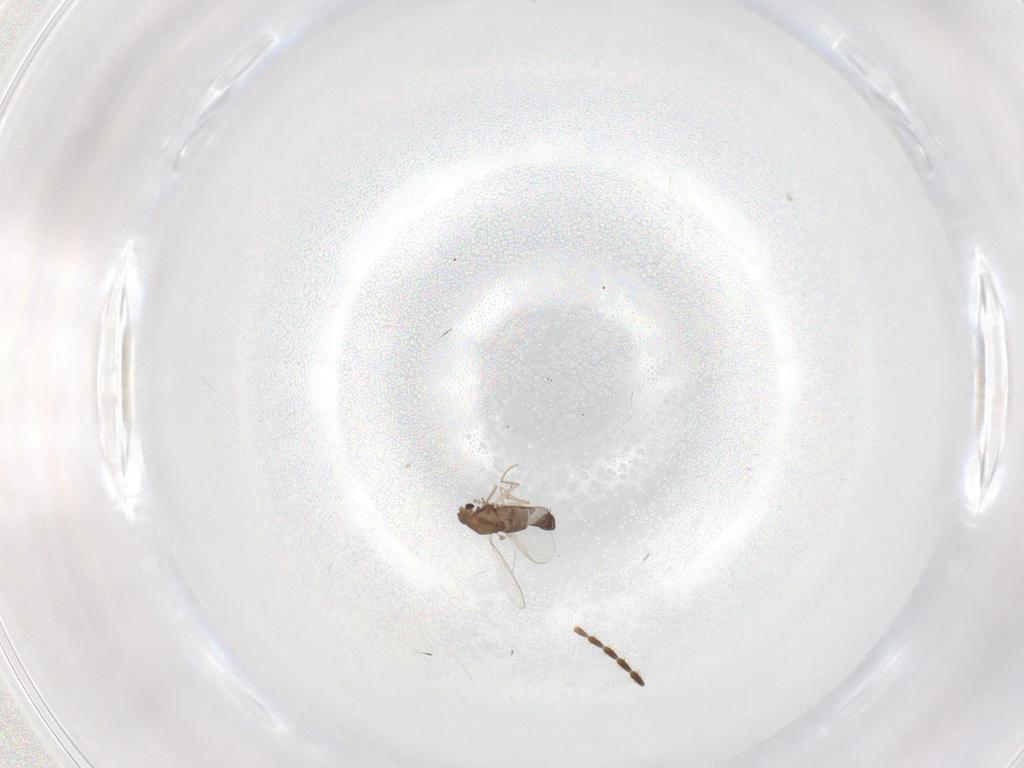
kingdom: Animalia
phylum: Arthropoda
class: Insecta
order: Diptera
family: Psychodidae
